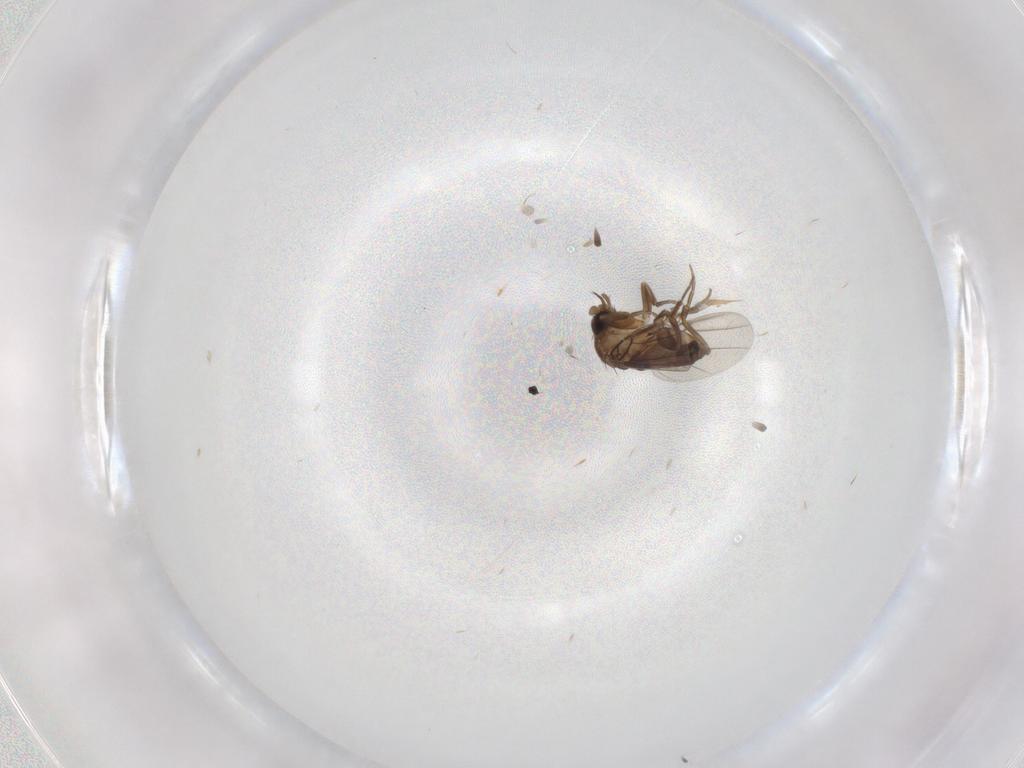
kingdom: Animalia
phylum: Arthropoda
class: Insecta
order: Diptera
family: Phoridae
